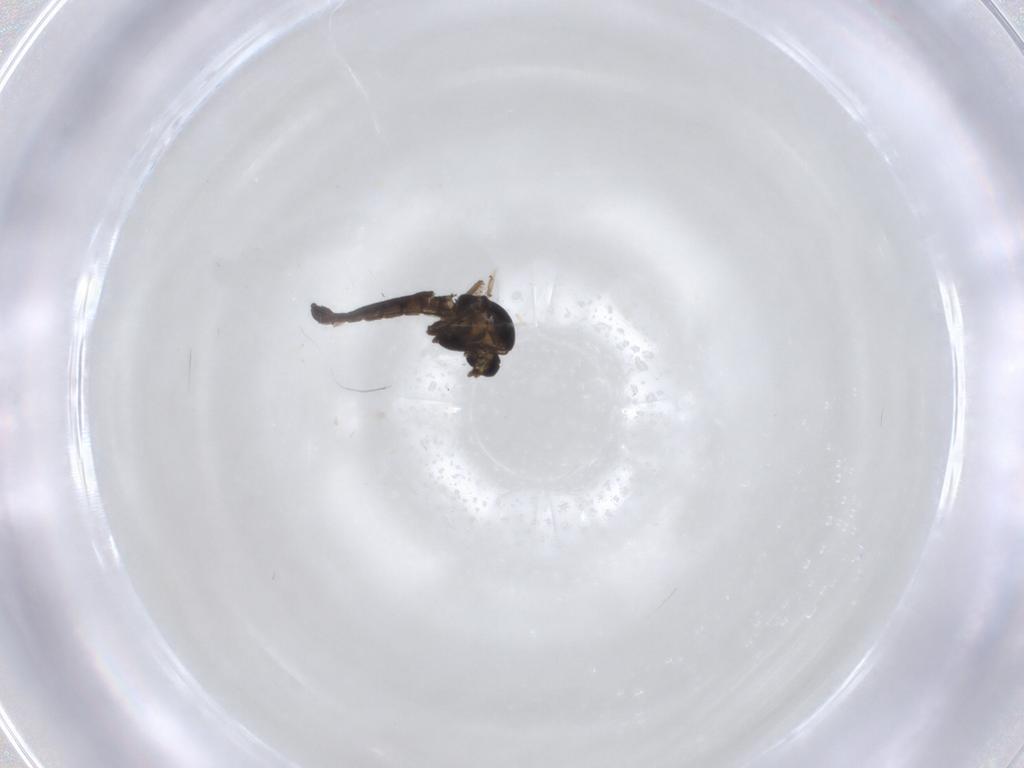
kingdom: Animalia
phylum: Arthropoda
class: Insecta
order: Diptera
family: Chironomidae
